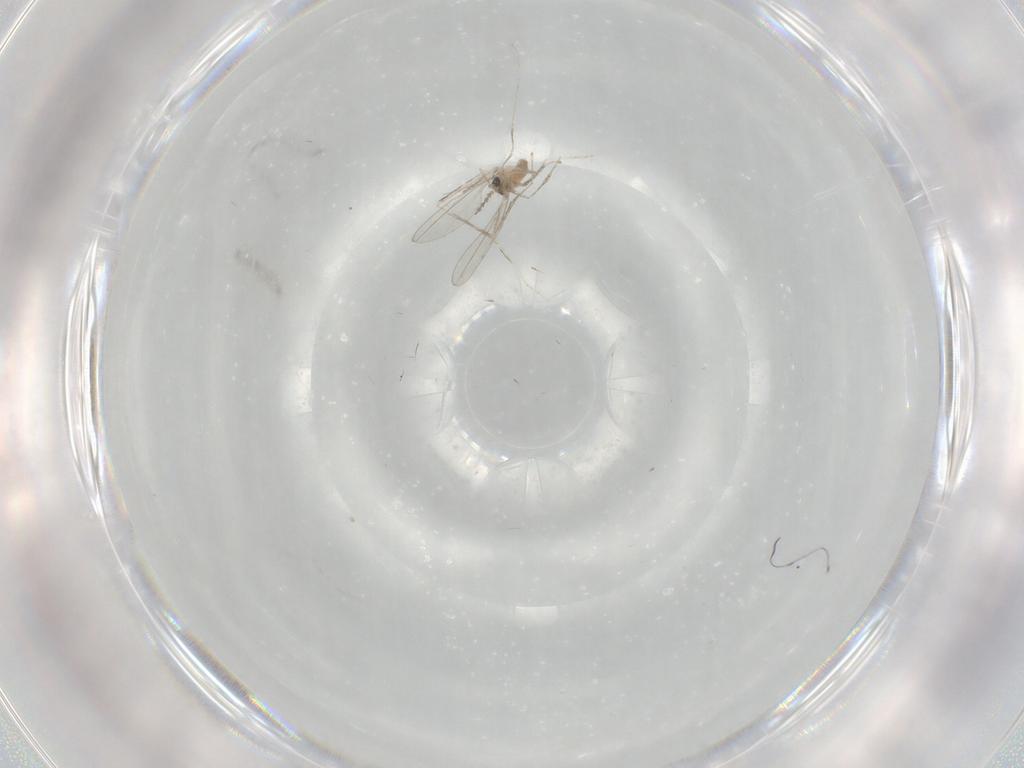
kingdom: Animalia
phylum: Arthropoda
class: Insecta
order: Diptera
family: Cecidomyiidae
